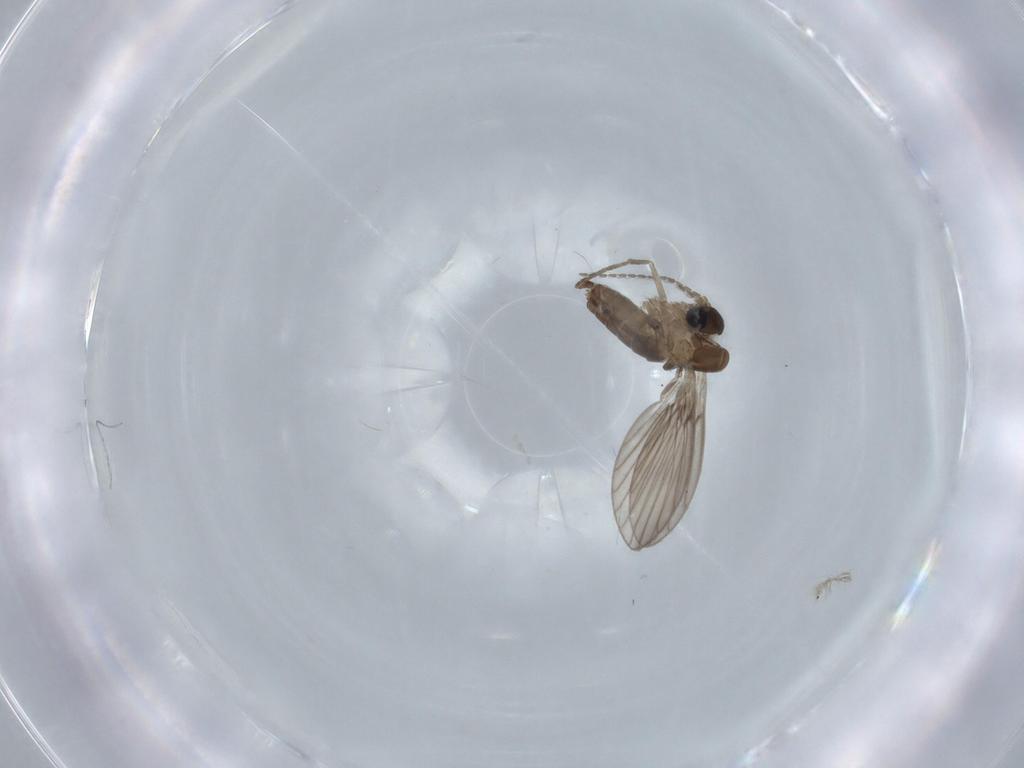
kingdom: Animalia
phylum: Arthropoda
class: Insecta
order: Diptera
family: Psychodidae
